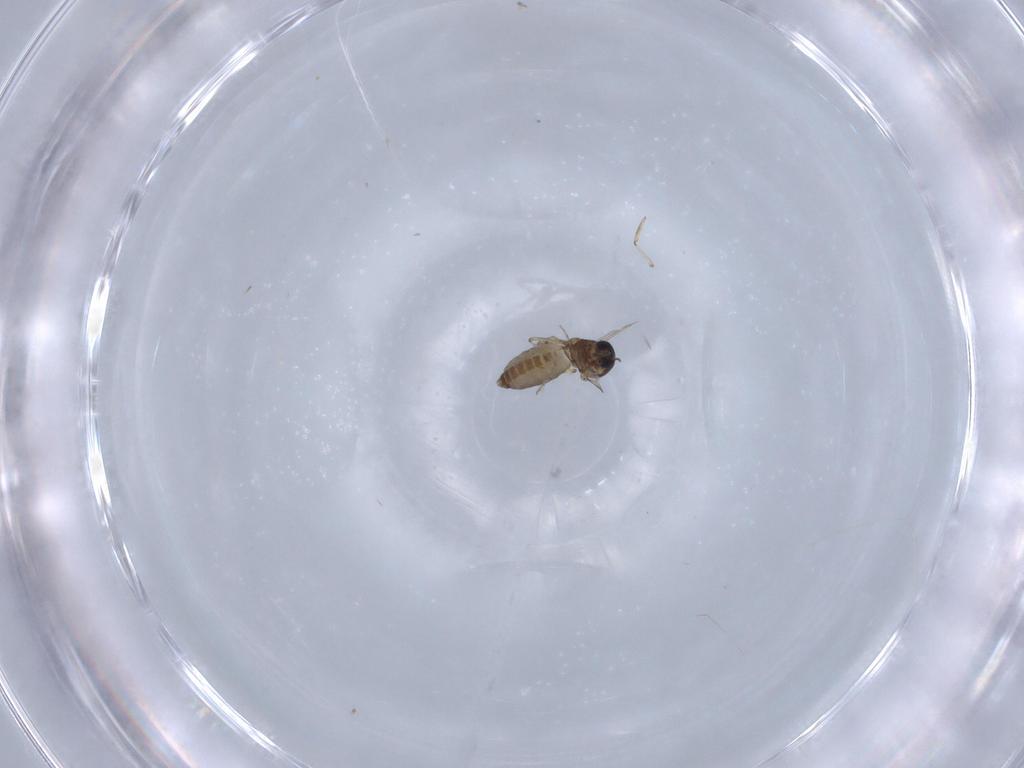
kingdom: Animalia
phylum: Arthropoda
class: Insecta
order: Diptera
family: Ceratopogonidae
